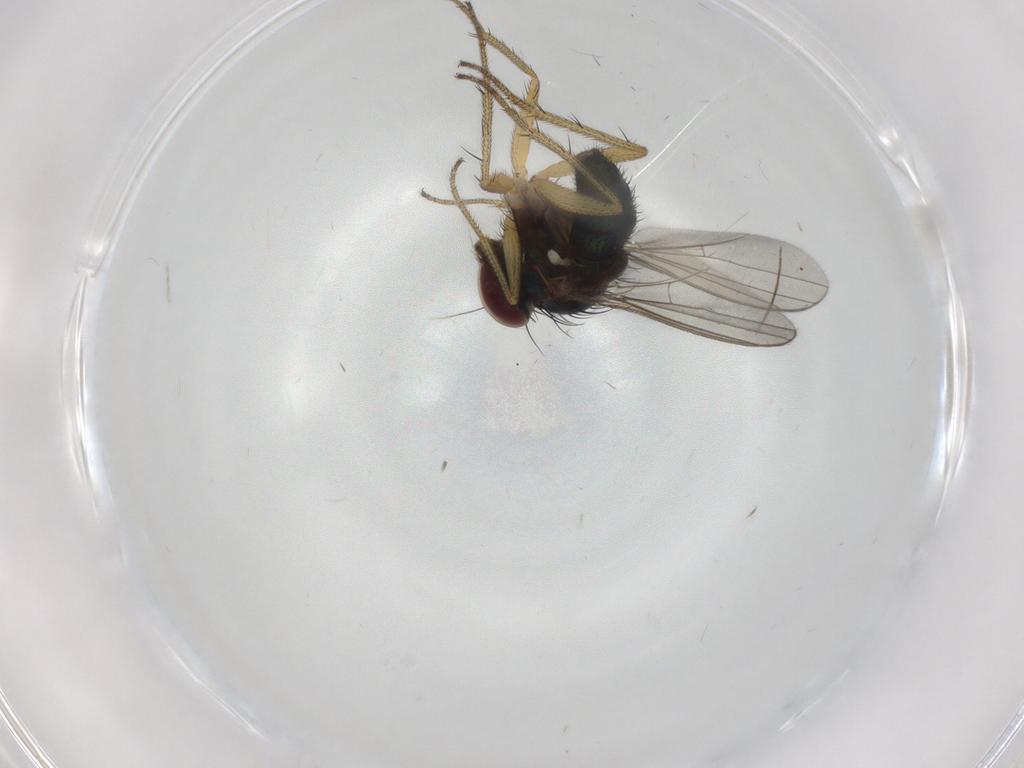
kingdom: Animalia
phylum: Arthropoda
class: Insecta
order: Diptera
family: Dolichopodidae
